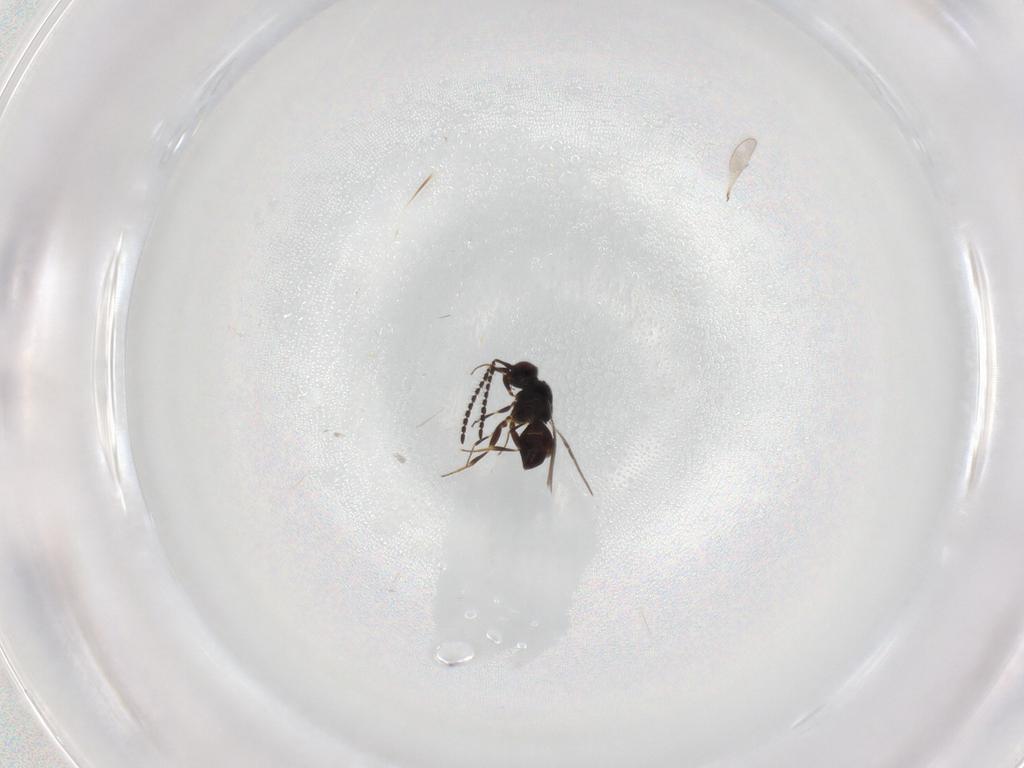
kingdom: Animalia
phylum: Arthropoda
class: Insecta
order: Hymenoptera
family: Ceraphronidae
